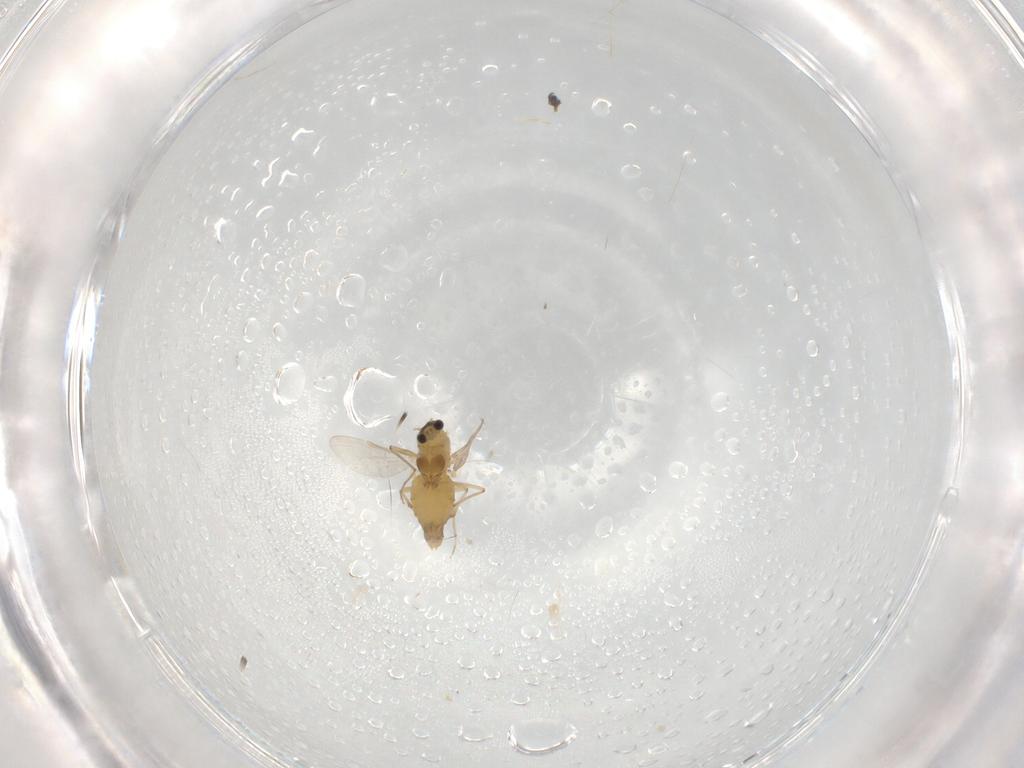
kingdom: Animalia
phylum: Arthropoda
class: Insecta
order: Diptera
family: Chironomidae
